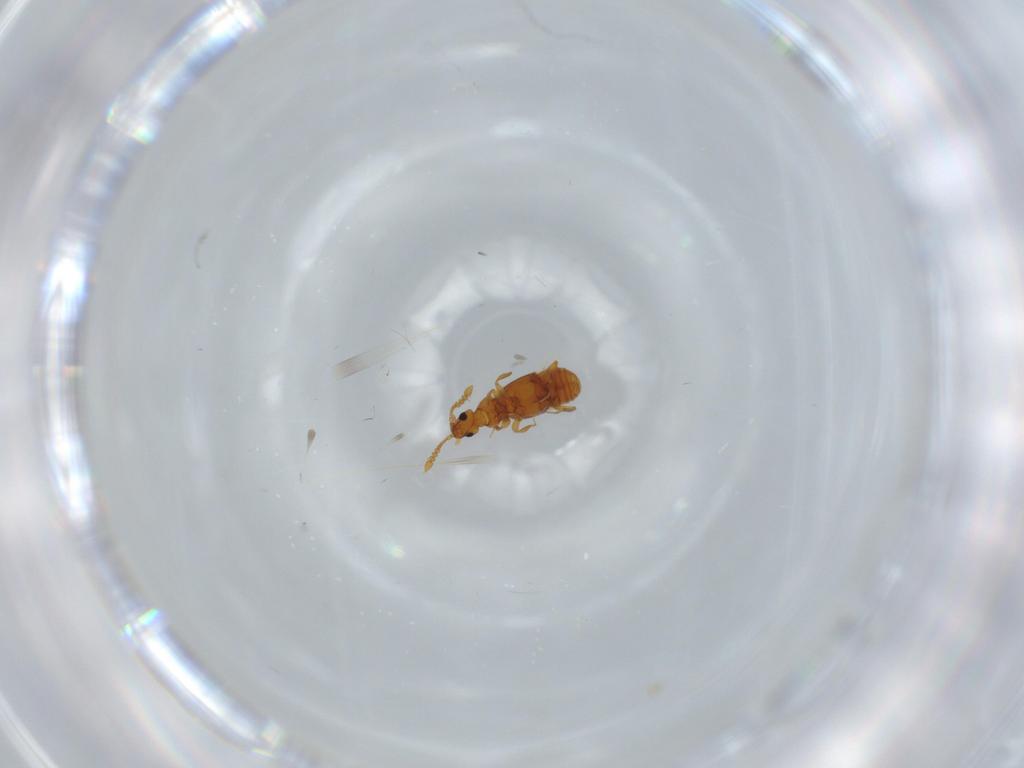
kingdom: Animalia
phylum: Arthropoda
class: Insecta
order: Coleoptera
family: Staphylinidae
